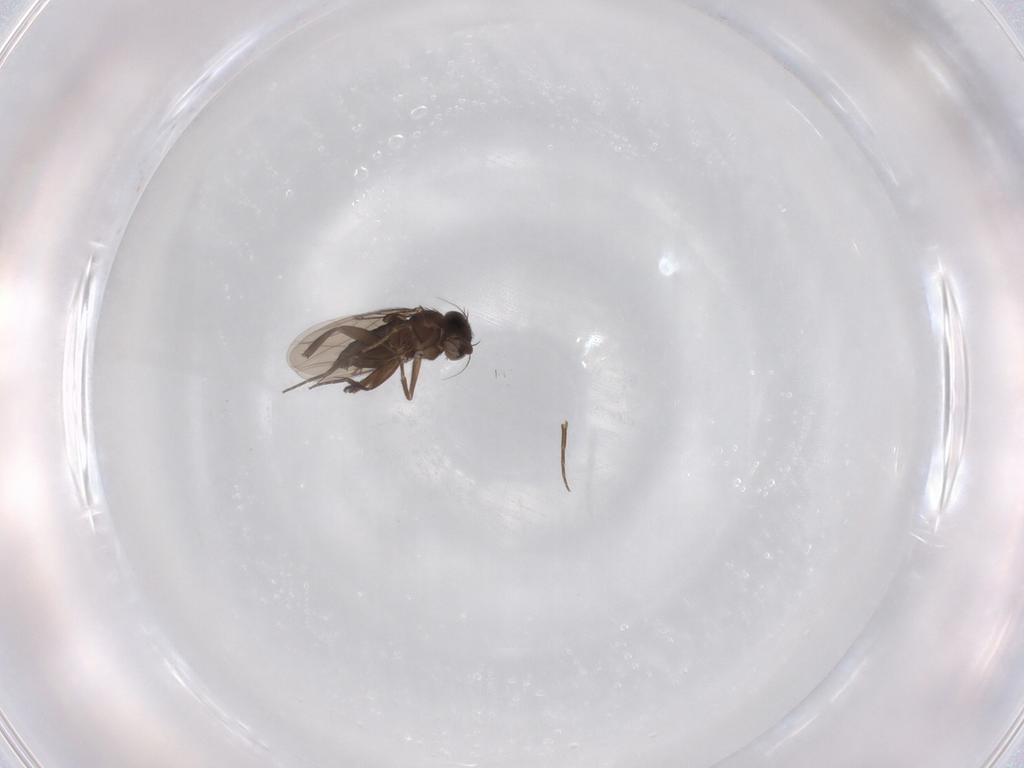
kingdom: Animalia
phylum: Arthropoda
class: Insecta
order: Diptera
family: Phoridae
